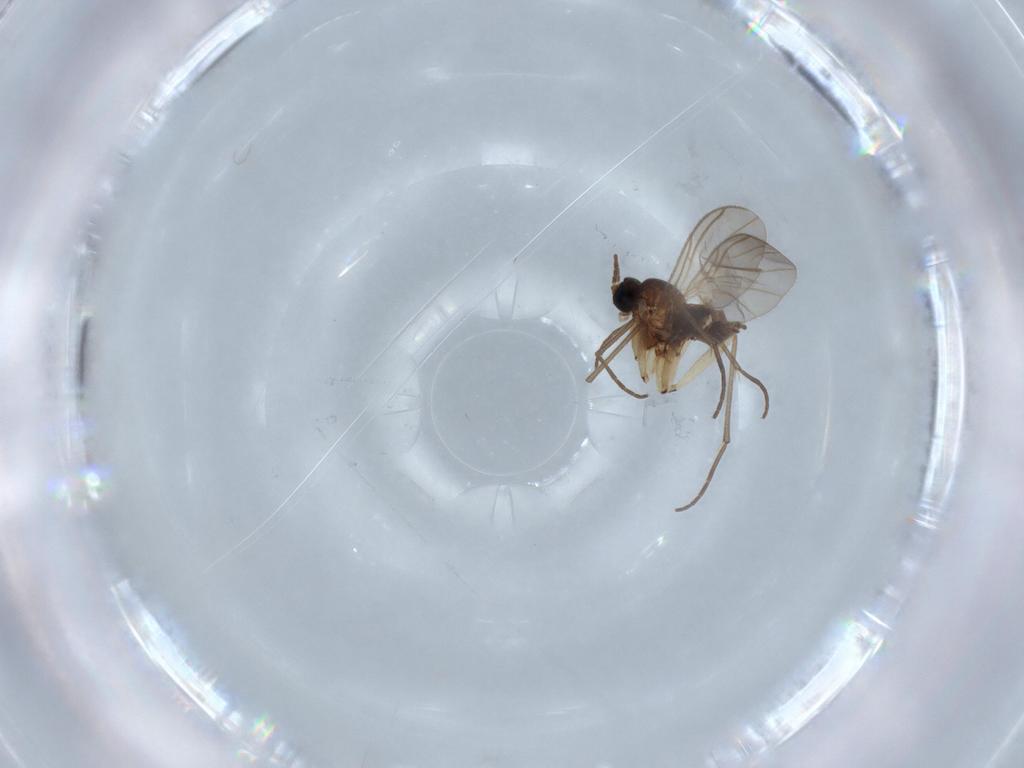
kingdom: Animalia
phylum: Arthropoda
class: Insecta
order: Diptera
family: Sciaridae
